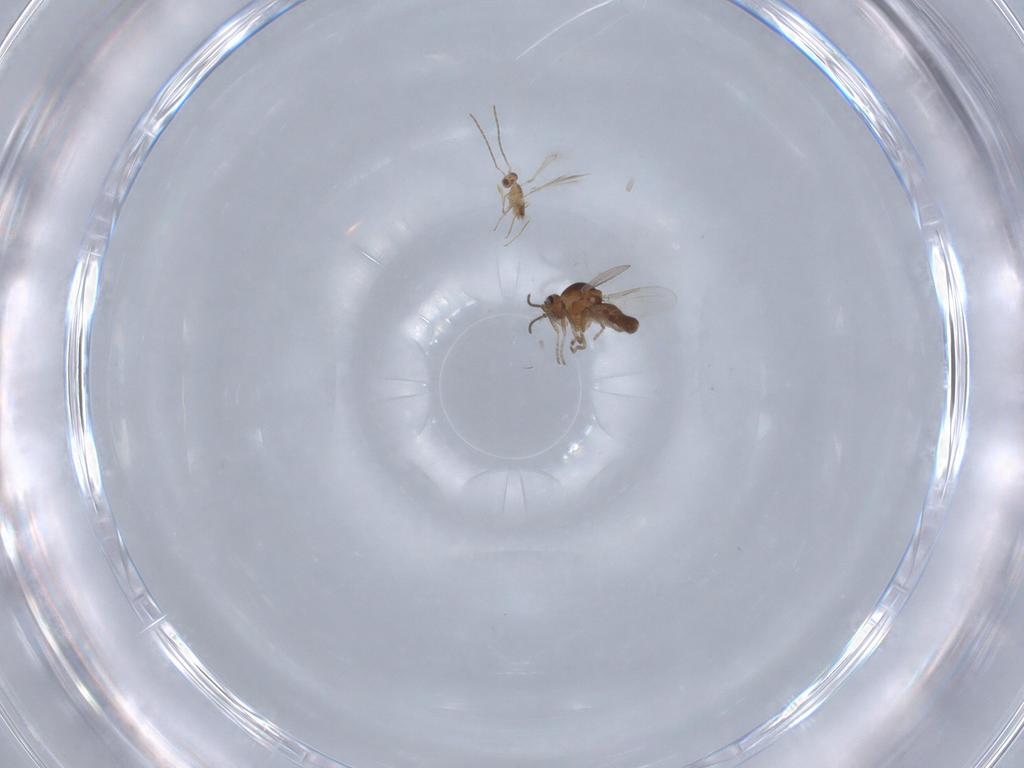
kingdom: Animalia
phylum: Arthropoda
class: Insecta
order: Diptera
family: Ceratopogonidae
